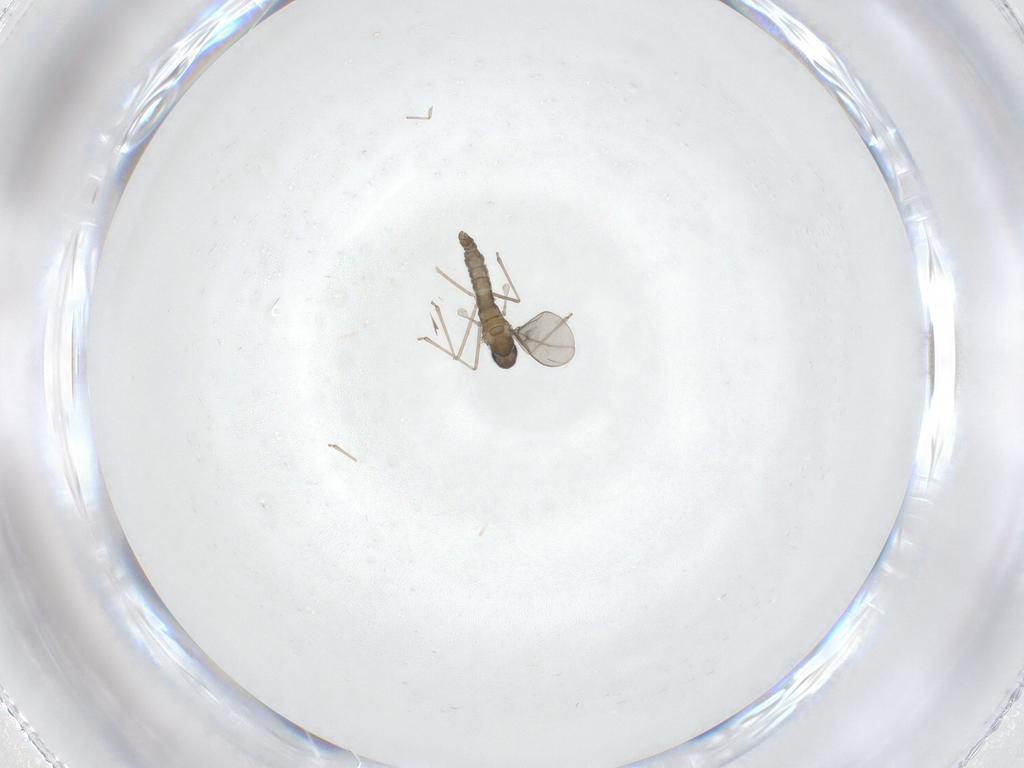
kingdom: Animalia
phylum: Arthropoda
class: Insecta
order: Diptera
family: Cecidomyiidae
